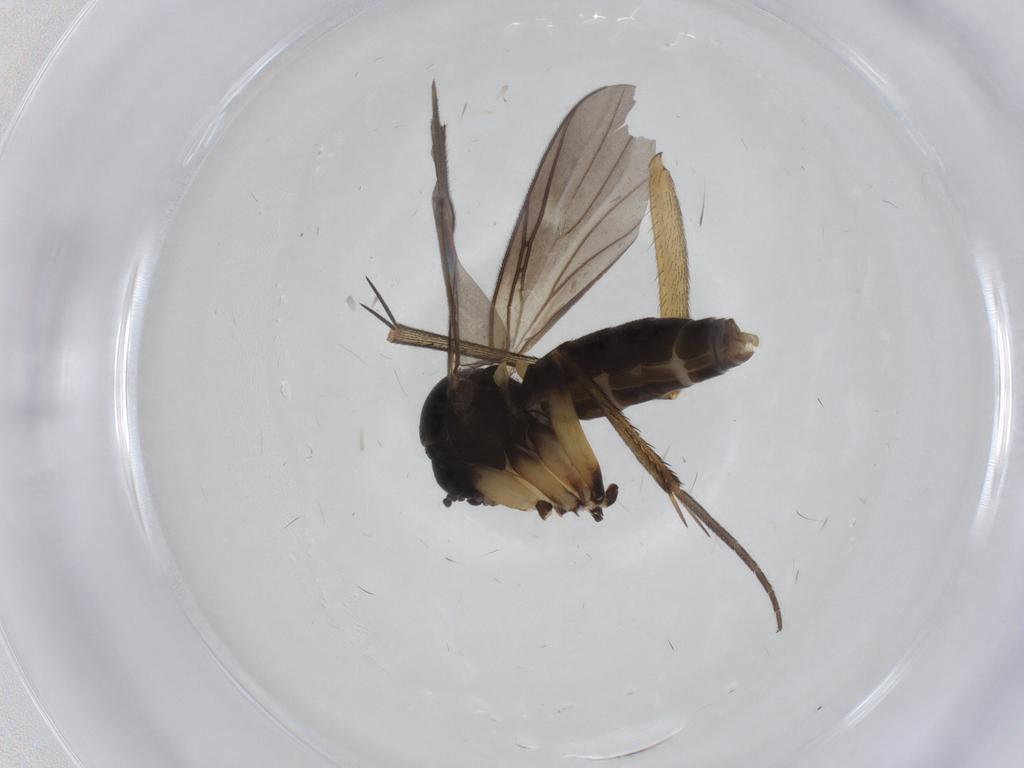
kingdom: Animalia
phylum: Arthropoda
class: Insecta
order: Diptera
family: Mycetophilidae
